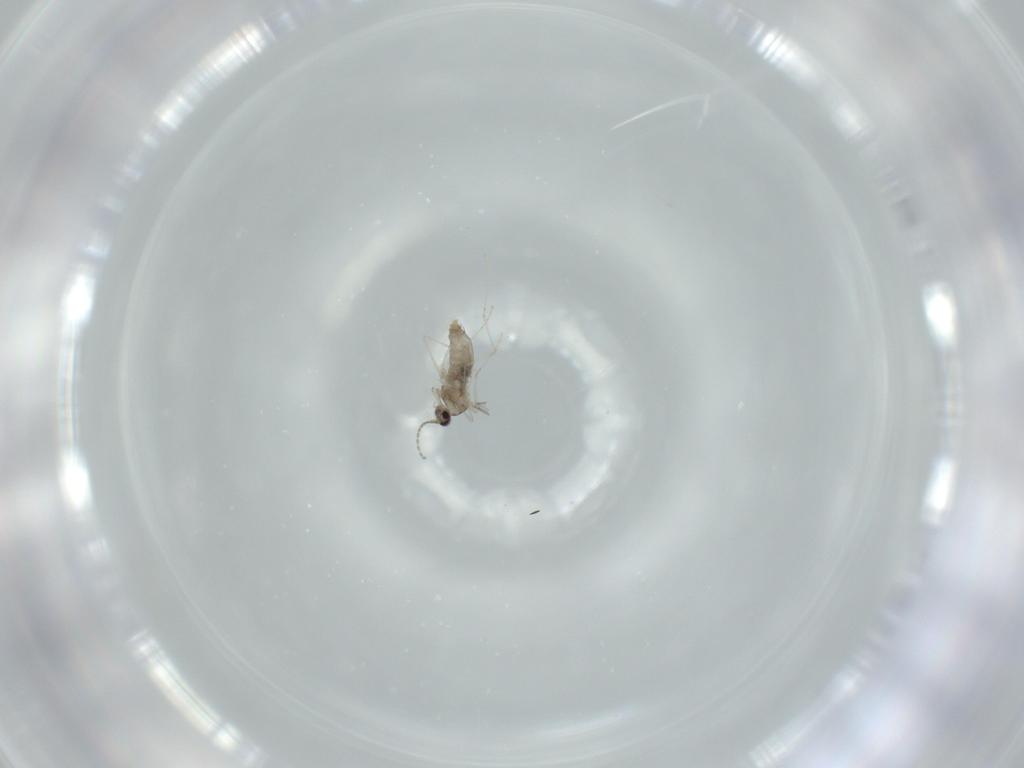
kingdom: Animalia
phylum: Arthropoda
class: Insecta
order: Diptera
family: Cecidomyiidae
